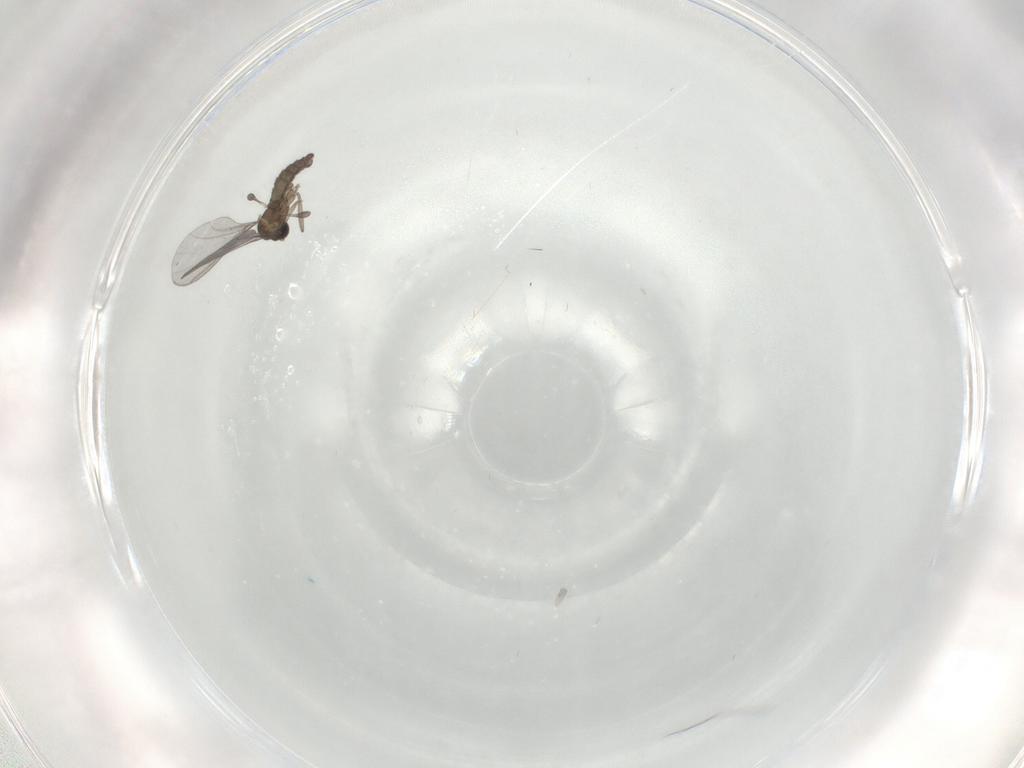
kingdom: Animalia
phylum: Arthropoda
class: Insecta
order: Diptera
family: Sciaridae
